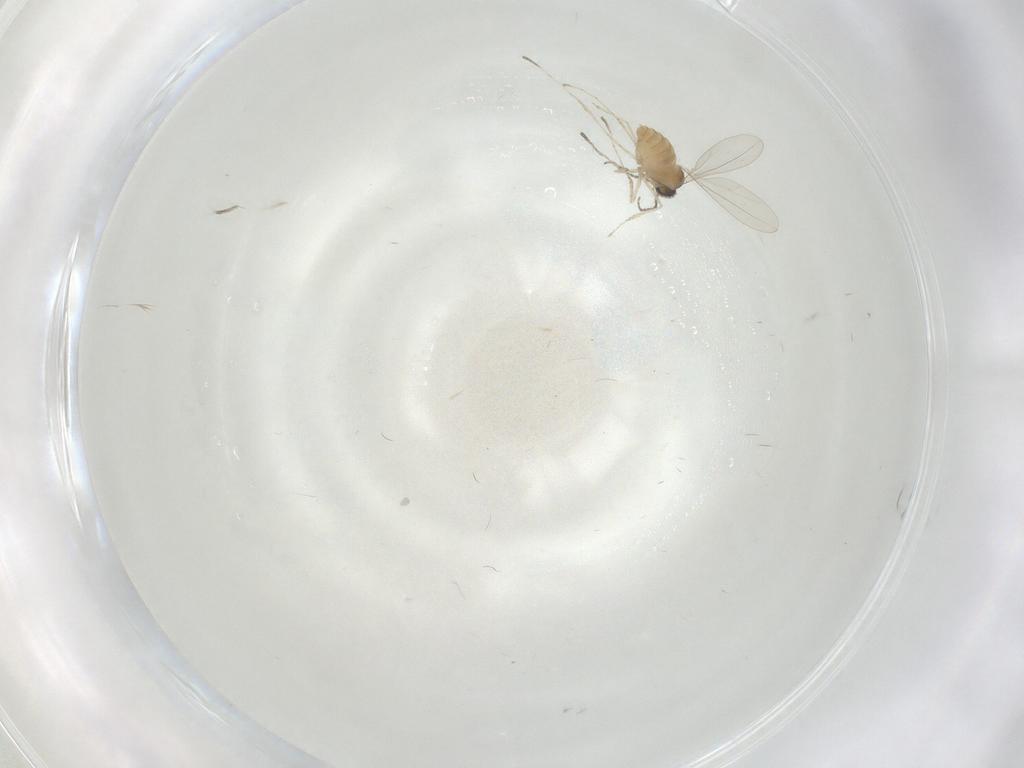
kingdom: Animalia
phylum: Arthropoda
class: Insecta
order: Diptera
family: Cecidomyiidae
